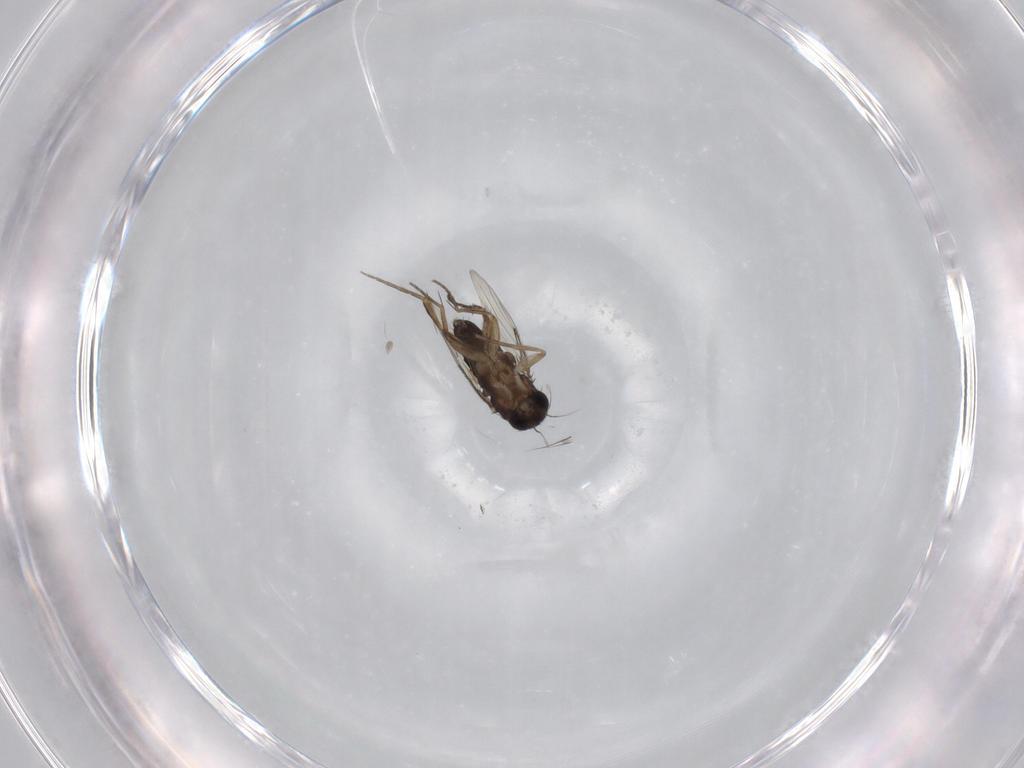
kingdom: Animalia
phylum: Arthropoda
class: Insecta
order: Diptera
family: Phoridae
